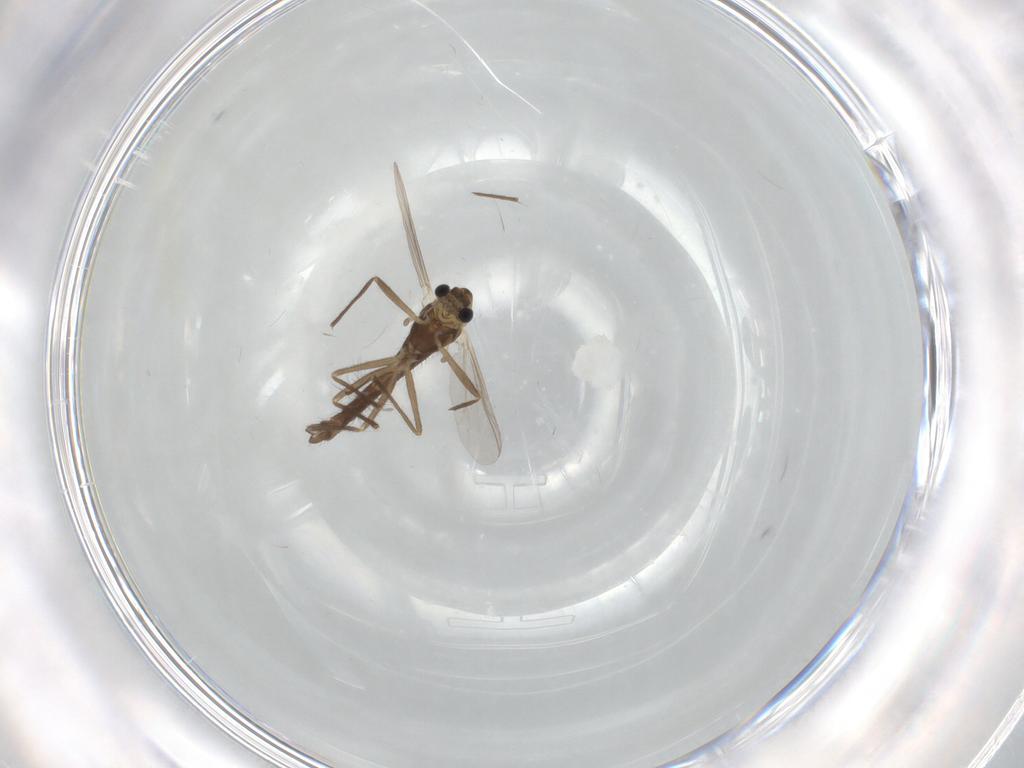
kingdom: Animalia
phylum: Arthropoda
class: Insecta
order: Diptera
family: Chironomidae
